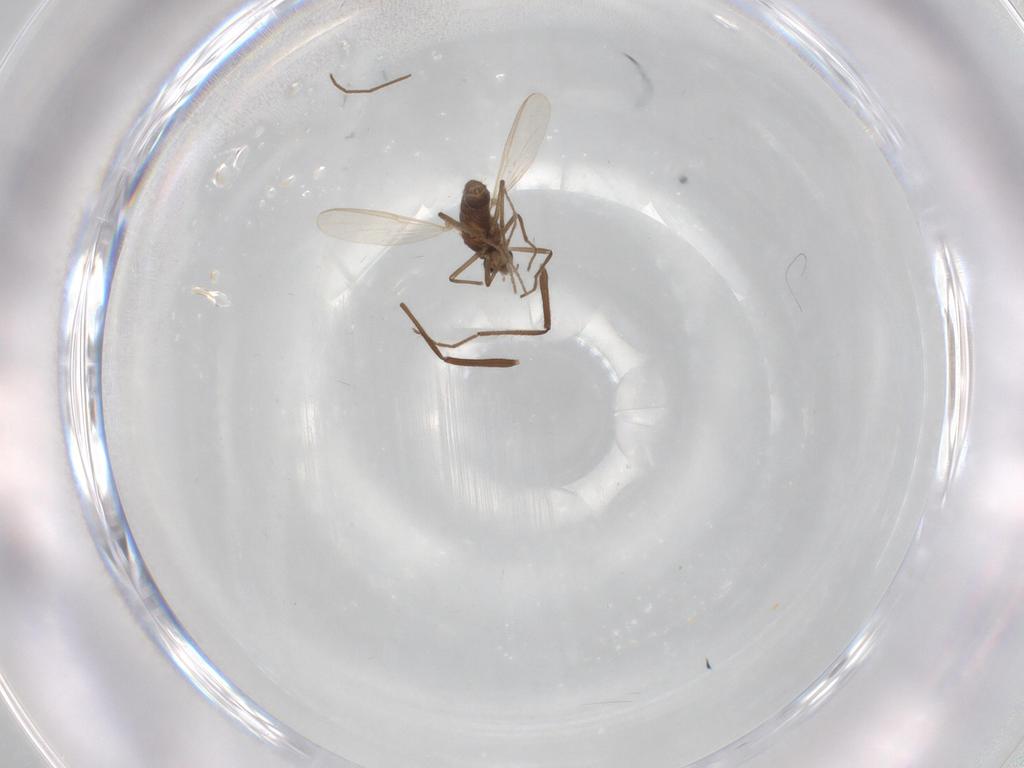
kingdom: Animalia
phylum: Arthropoda
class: Insecta
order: Diptera
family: Chironomidae
